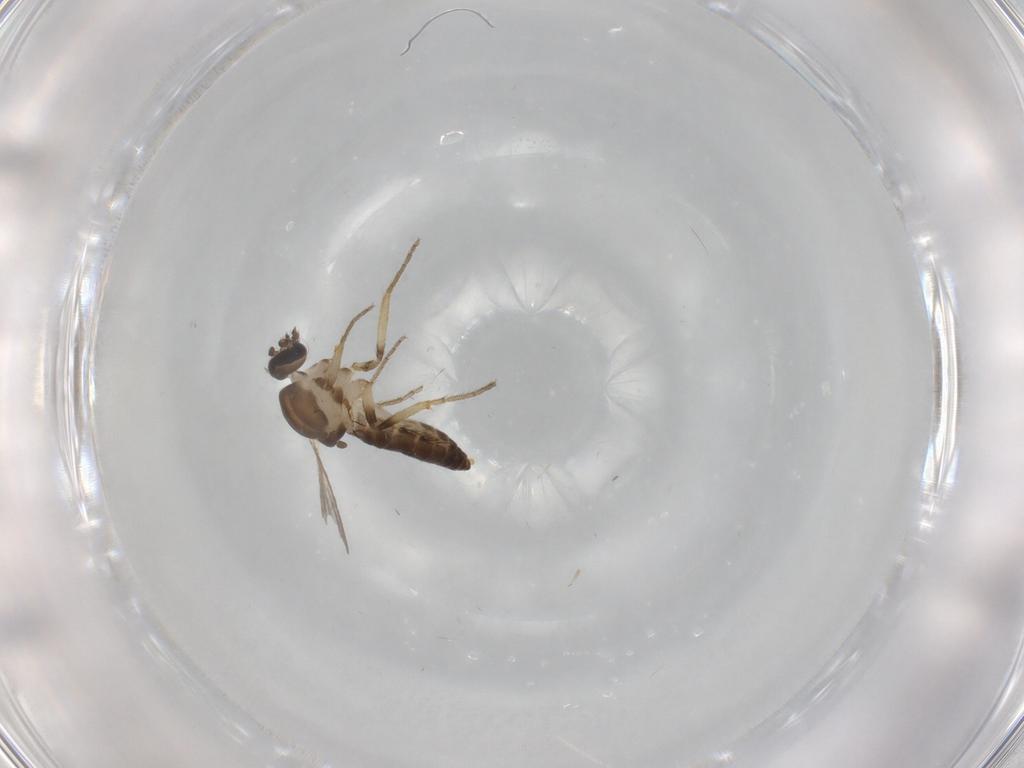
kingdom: Animalia
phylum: Arthropoda
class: Insecta
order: Diptera
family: Ceratopogonidae
